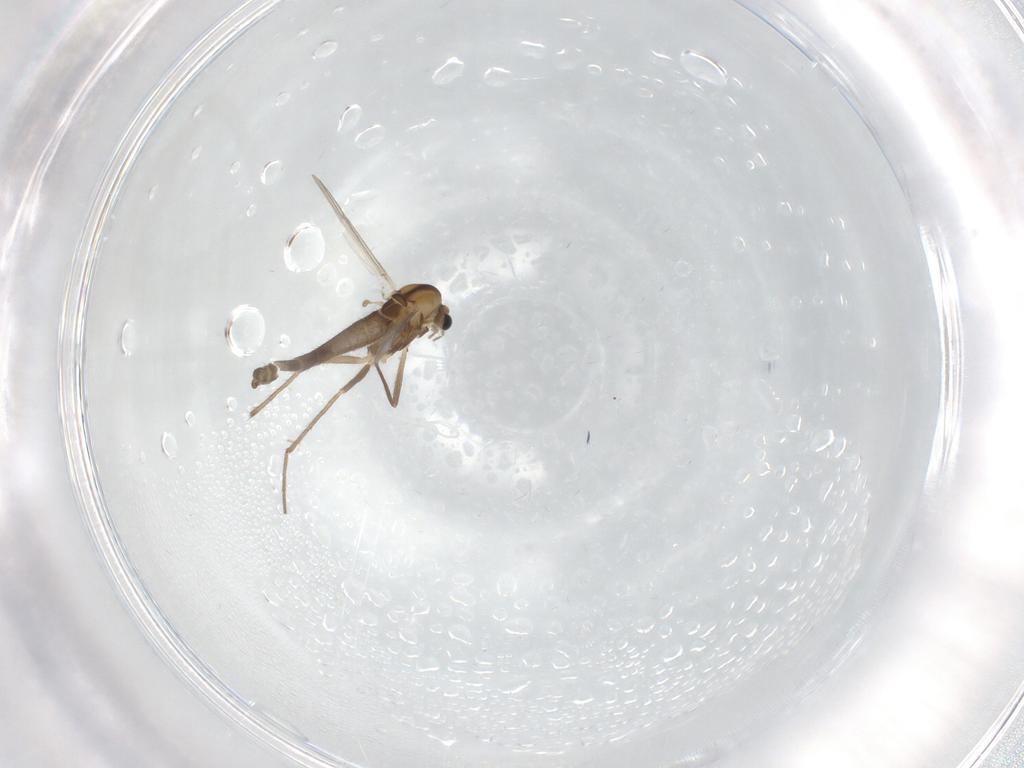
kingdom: Animalia
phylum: Arthropoda
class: Insecta
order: Diptera
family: Chironomidae
